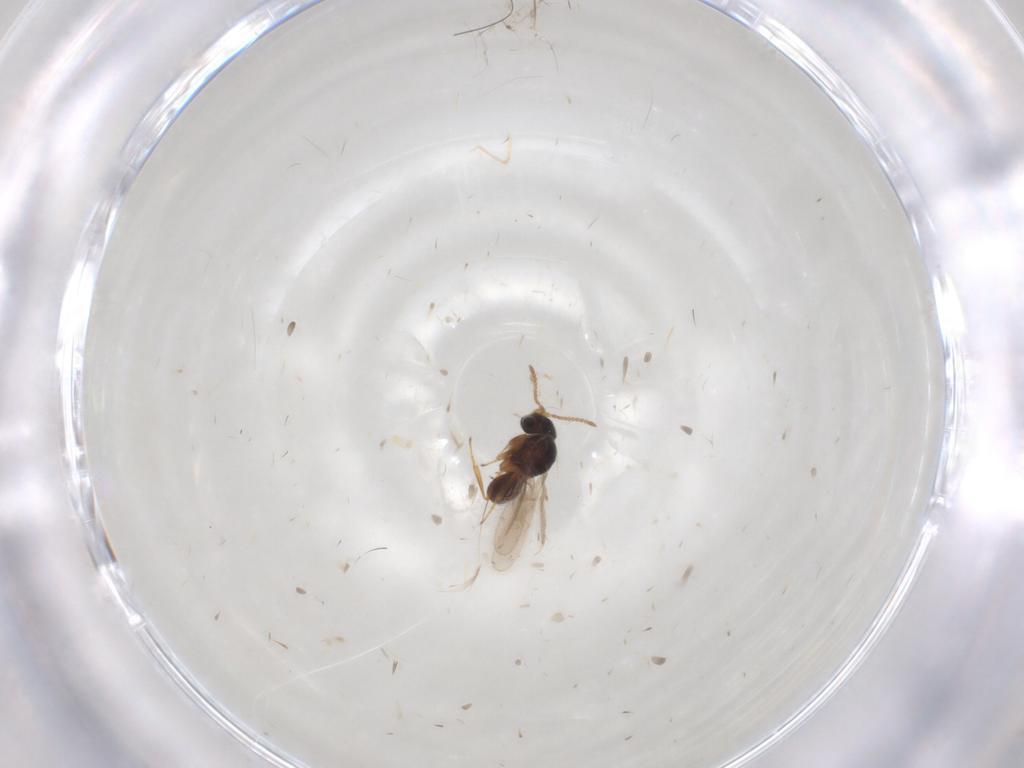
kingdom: Animalia
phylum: Arthropoda
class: Insecta
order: Hymenoptera
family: Scelionidae
